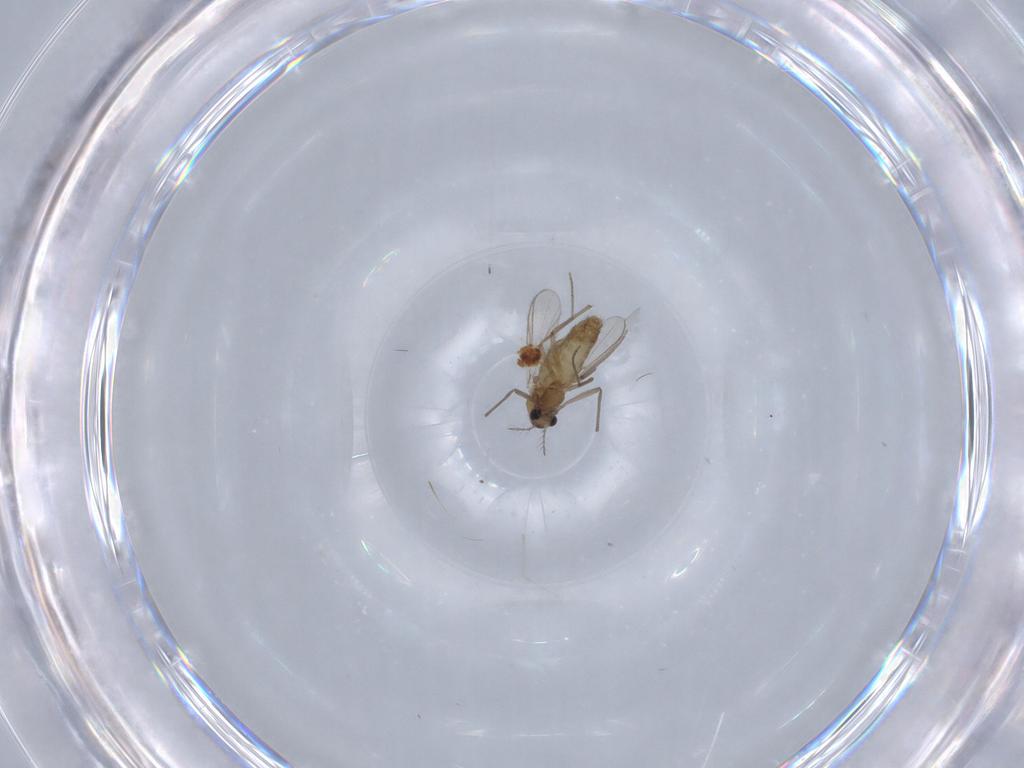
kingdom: Animalia
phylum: Arthropoda
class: Insecta
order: Diptera
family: Chironomidae
